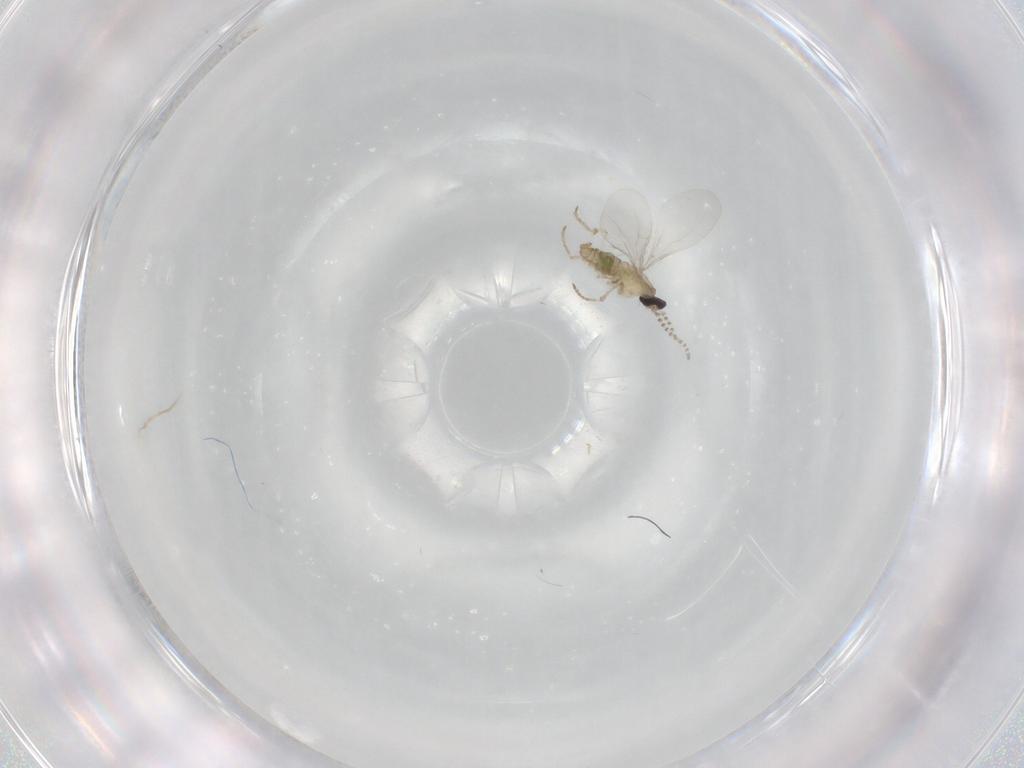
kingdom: Animalia
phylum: Arthropoda
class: Insecta
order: Diptera
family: Cecidomyiidae
